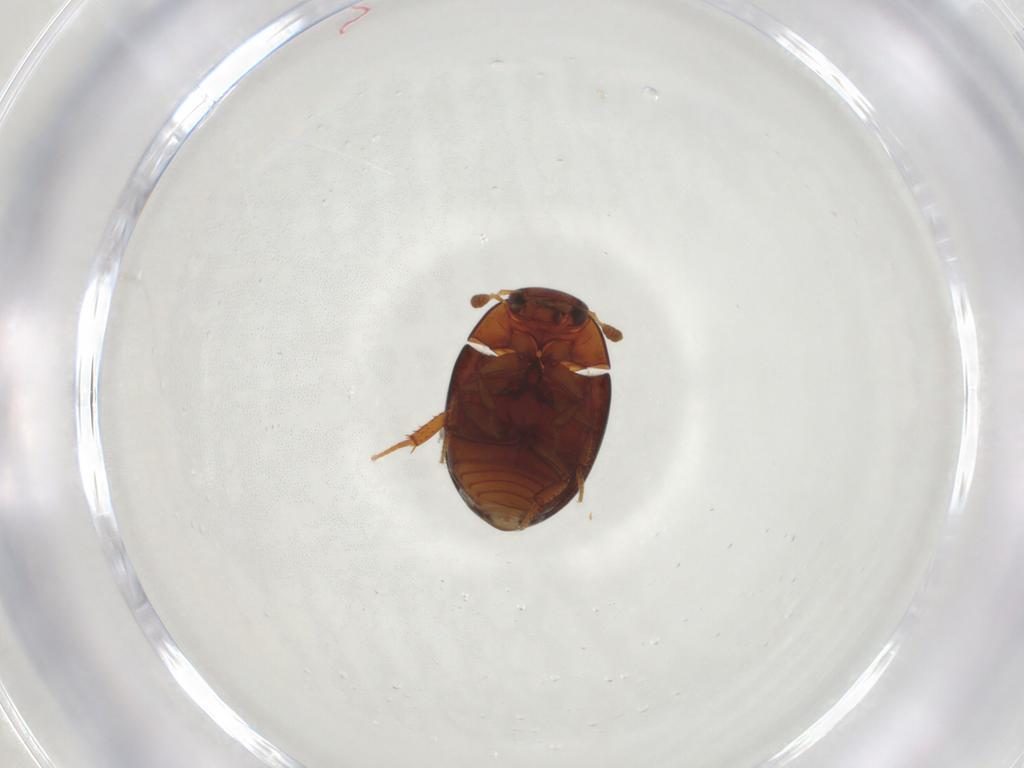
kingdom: Animalia
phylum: Arthropoda
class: Insecta
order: Coleoptera
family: Hydrophilidae
